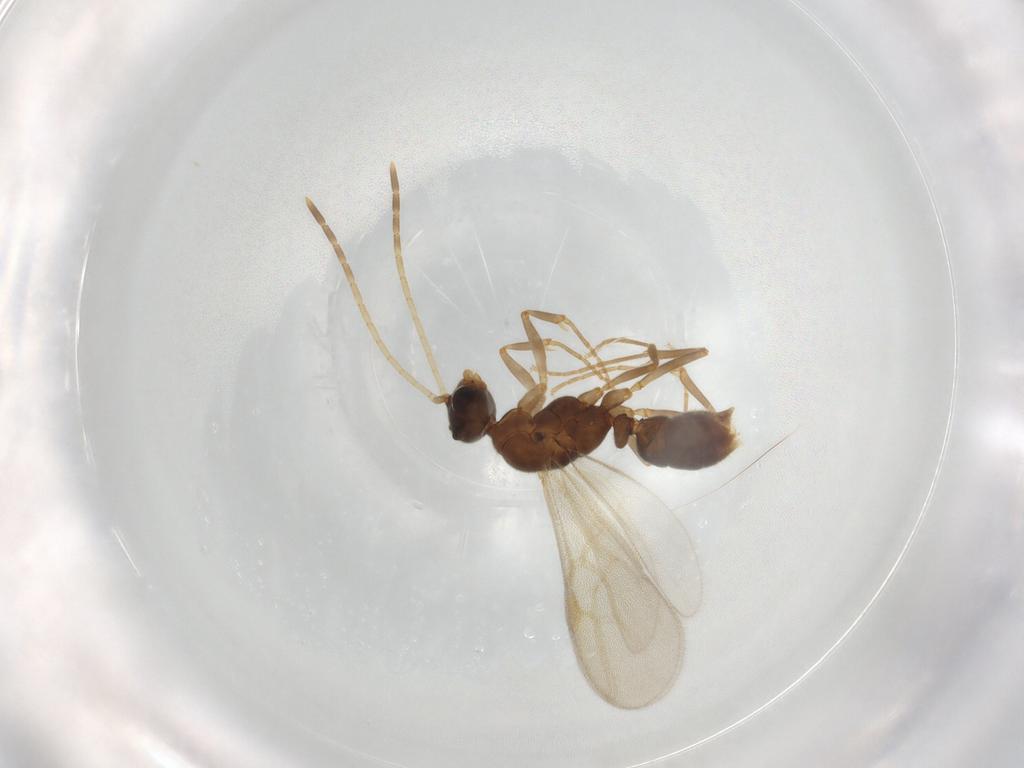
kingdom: Animalia
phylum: Arthropoda
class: Insecta
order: Hymenoptera
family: Formicidae
